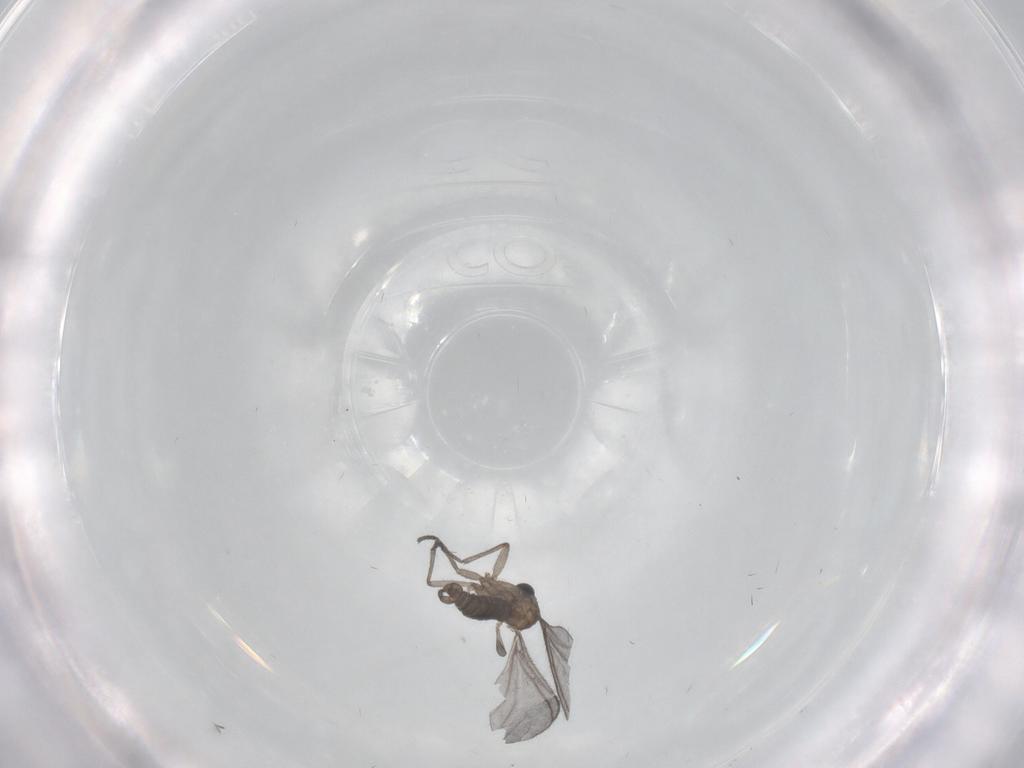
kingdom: Animalia
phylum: Arthropoda
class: Insecta
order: Diptera
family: Sciaridae
